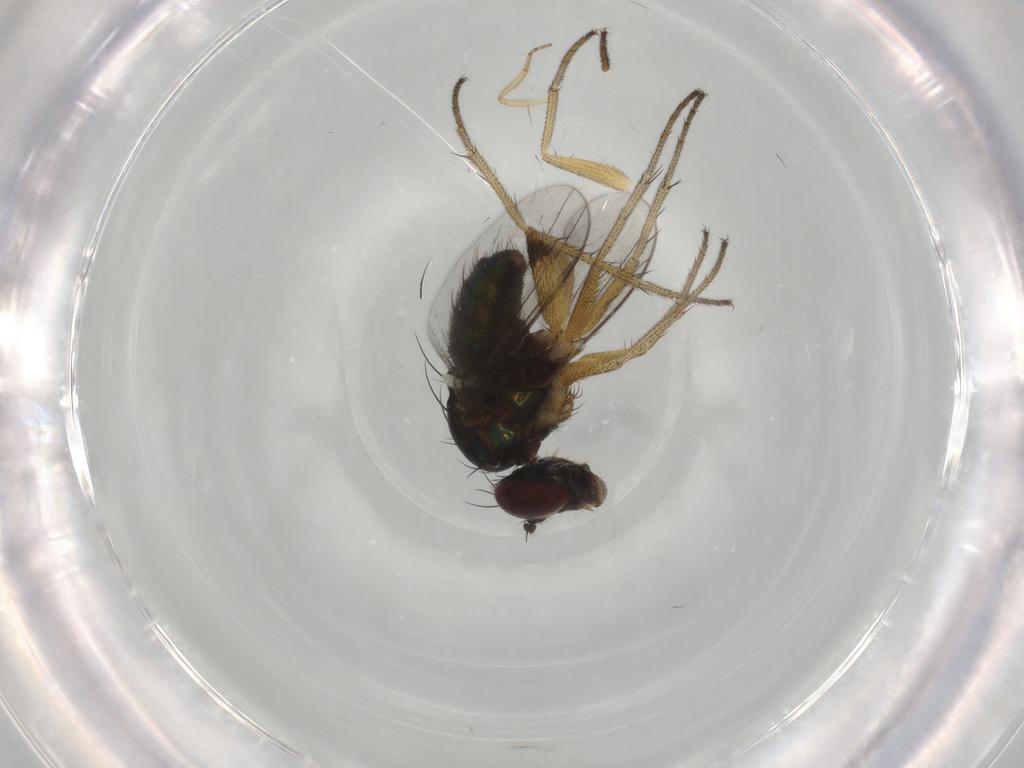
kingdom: Animalia
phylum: Arthropoda
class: Insecta
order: Diptera
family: Dolichopodidae
